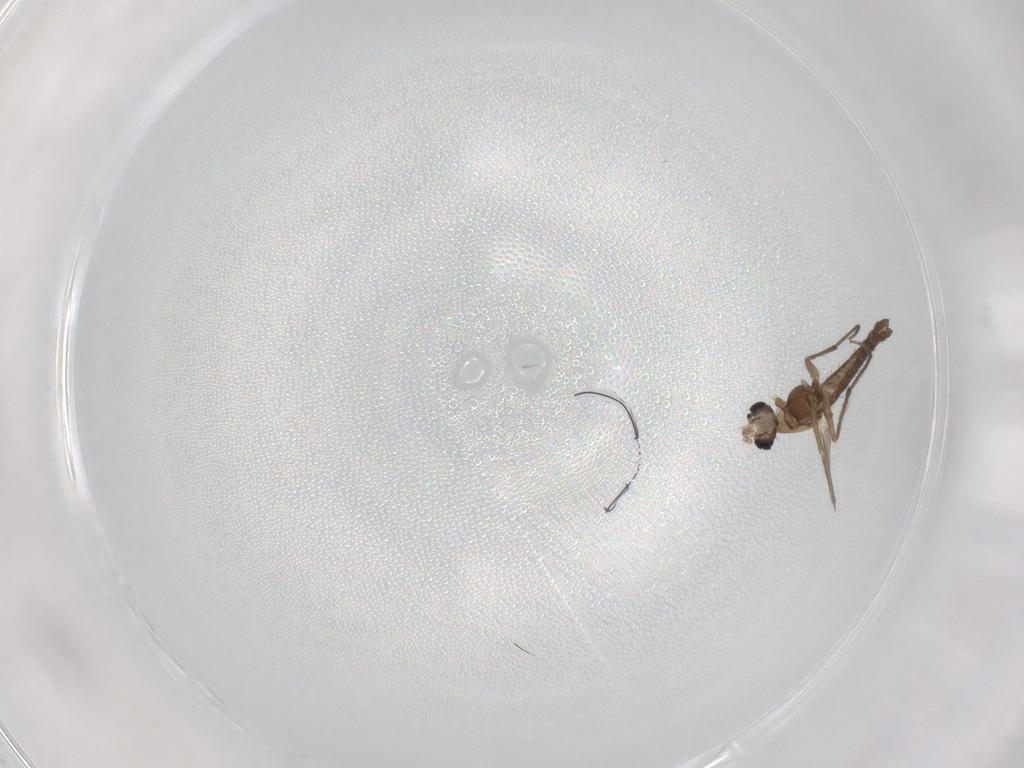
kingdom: Animalia
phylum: Arthropoda
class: Insecta
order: Diptera
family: Chironomidae
